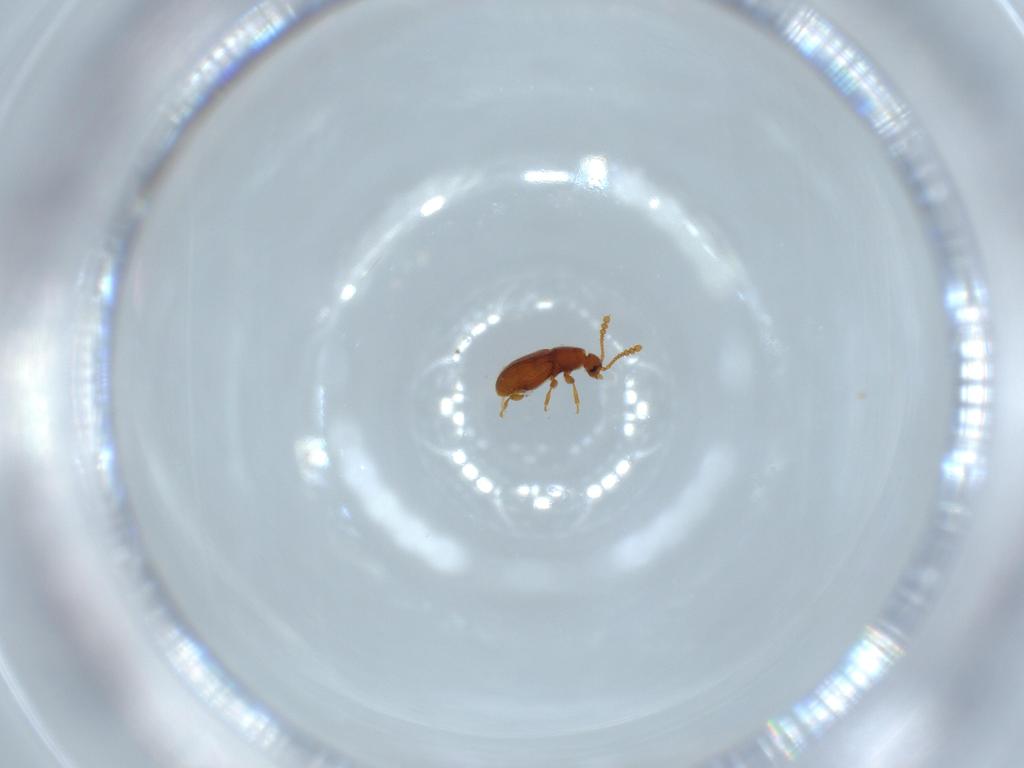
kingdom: Animalia
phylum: Arthropoda
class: Insecta
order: Coleoptera
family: Staphylinidae
